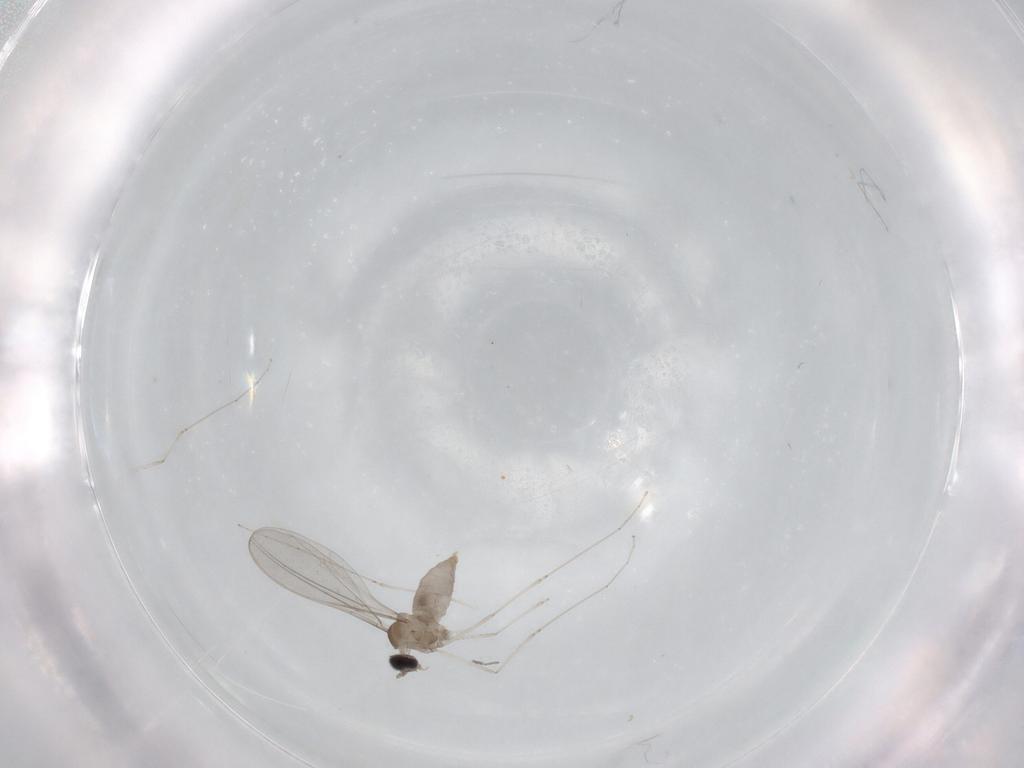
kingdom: Animalia
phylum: Arthropoda
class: Insecta
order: Diptera
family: Cecidomyiidae
